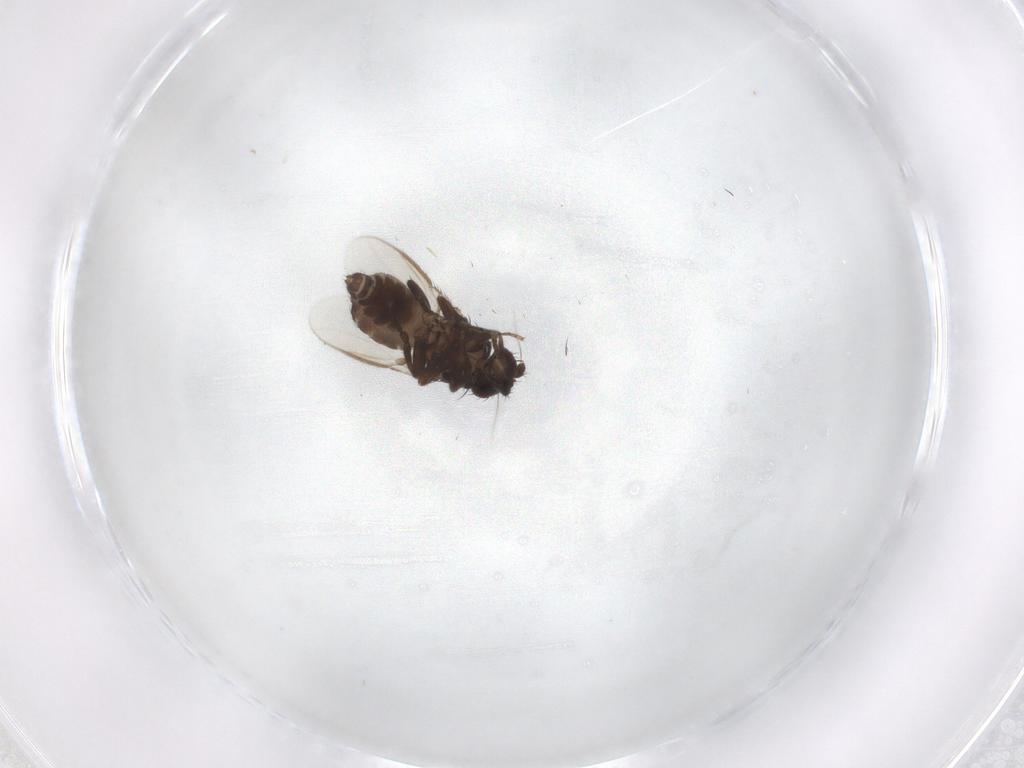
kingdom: Animalia
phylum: Arthropoda
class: Insecta
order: Diptera
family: Sphaeroceridae
